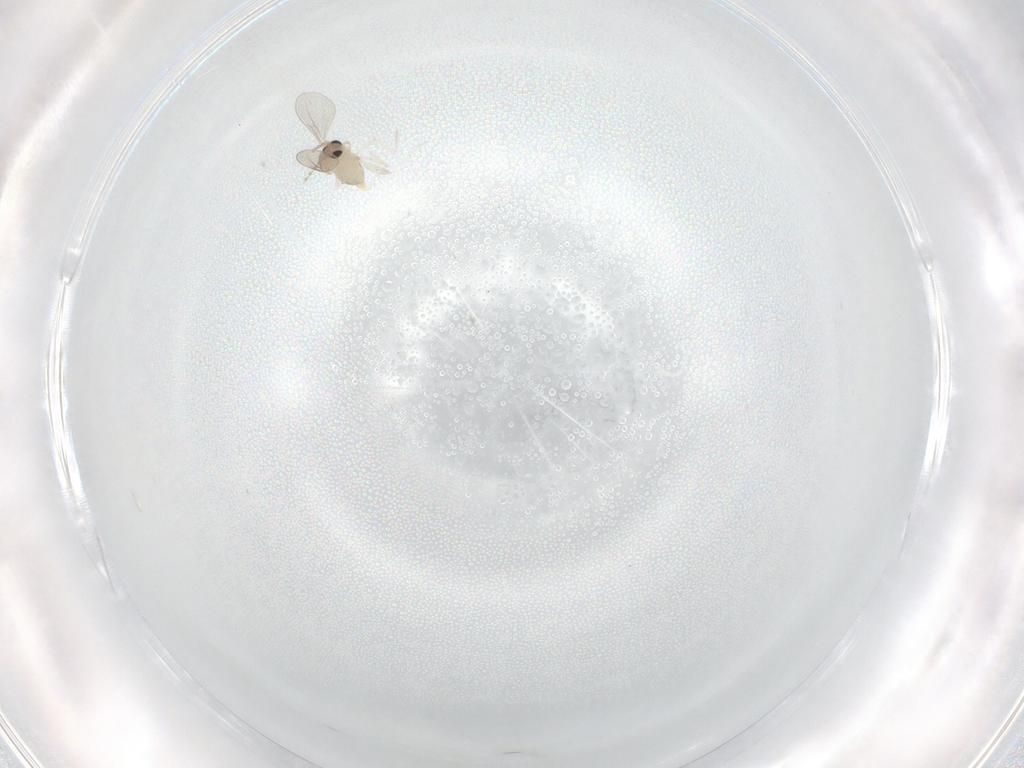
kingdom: Animalia
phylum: Arthropoda
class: Insecta
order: Diptera
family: Cecidomyiidae
